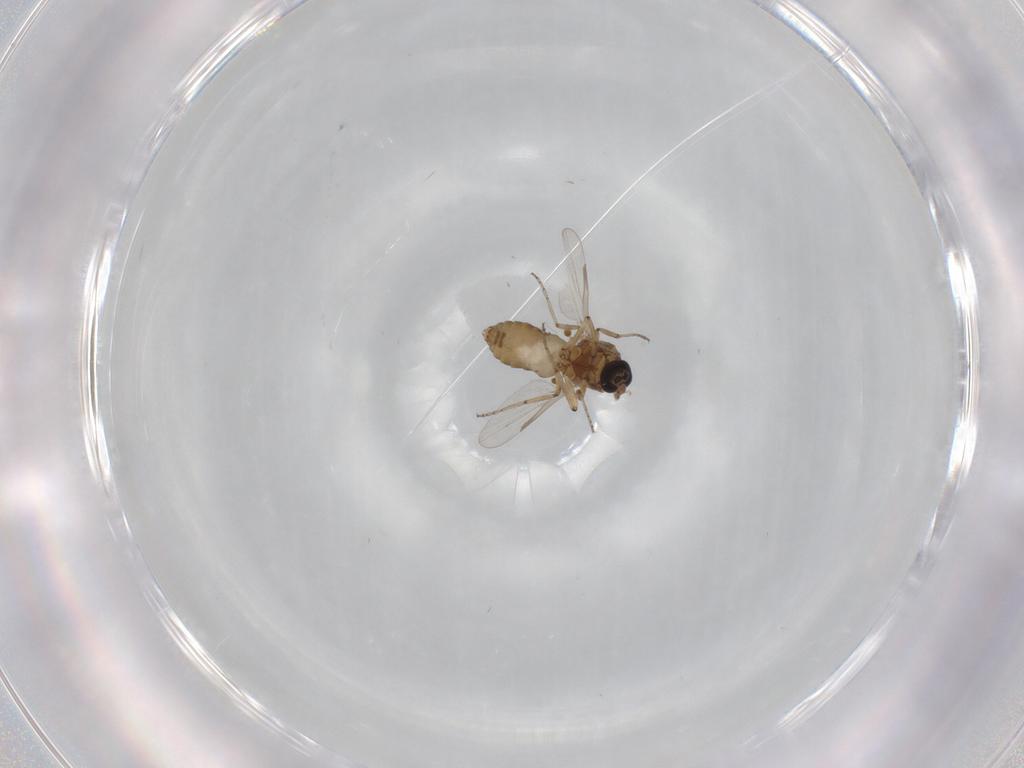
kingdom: Animalia
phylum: Arthropoda
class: Insecta
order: Diptera
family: Ceratopogonidae
